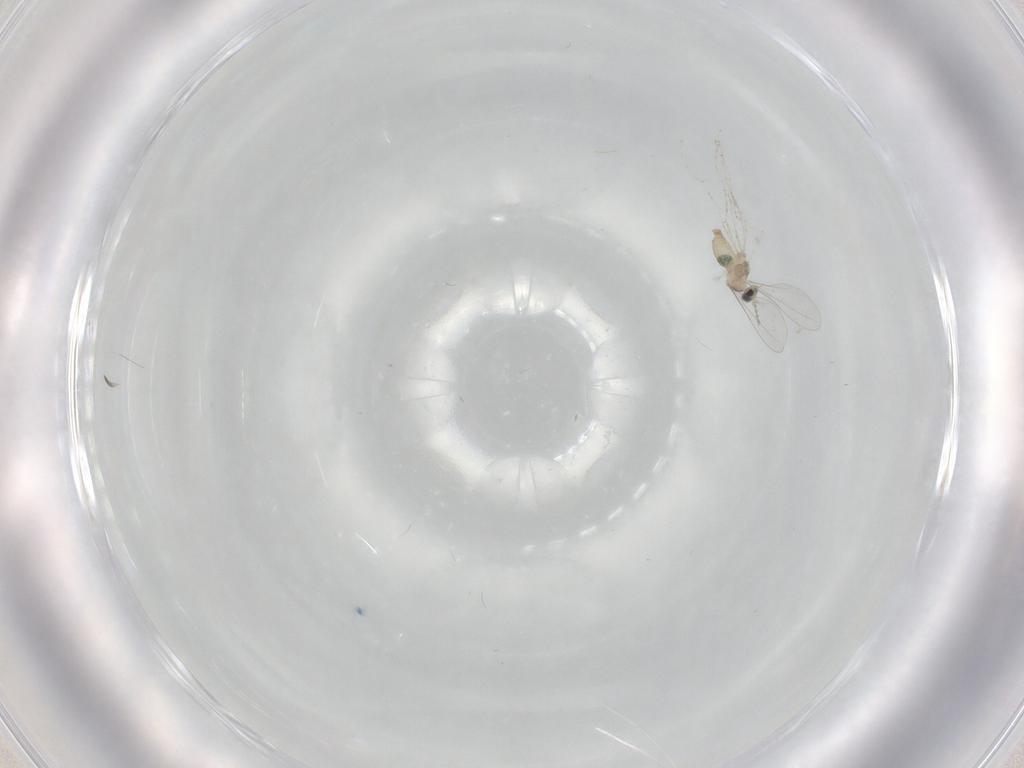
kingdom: Animalia
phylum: Arthropoda
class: Insecta
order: Diptera
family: Cecidomyiidae
